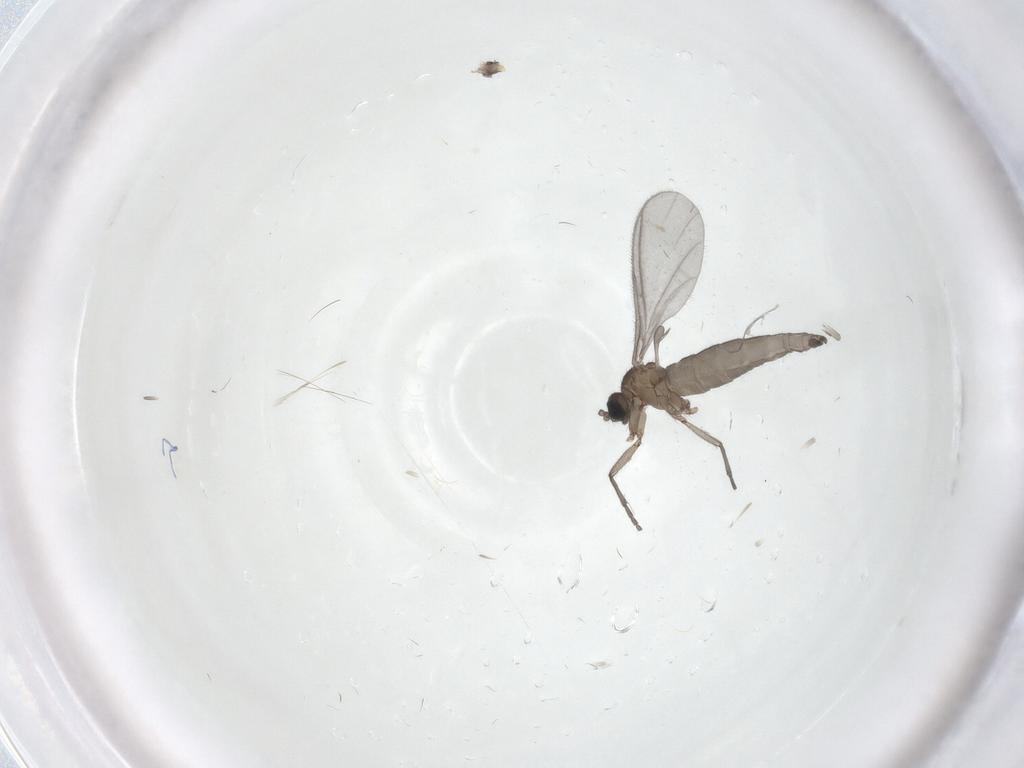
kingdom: Animalia
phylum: Arthropoda
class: Insecta
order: Diptera
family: Sciaridae
